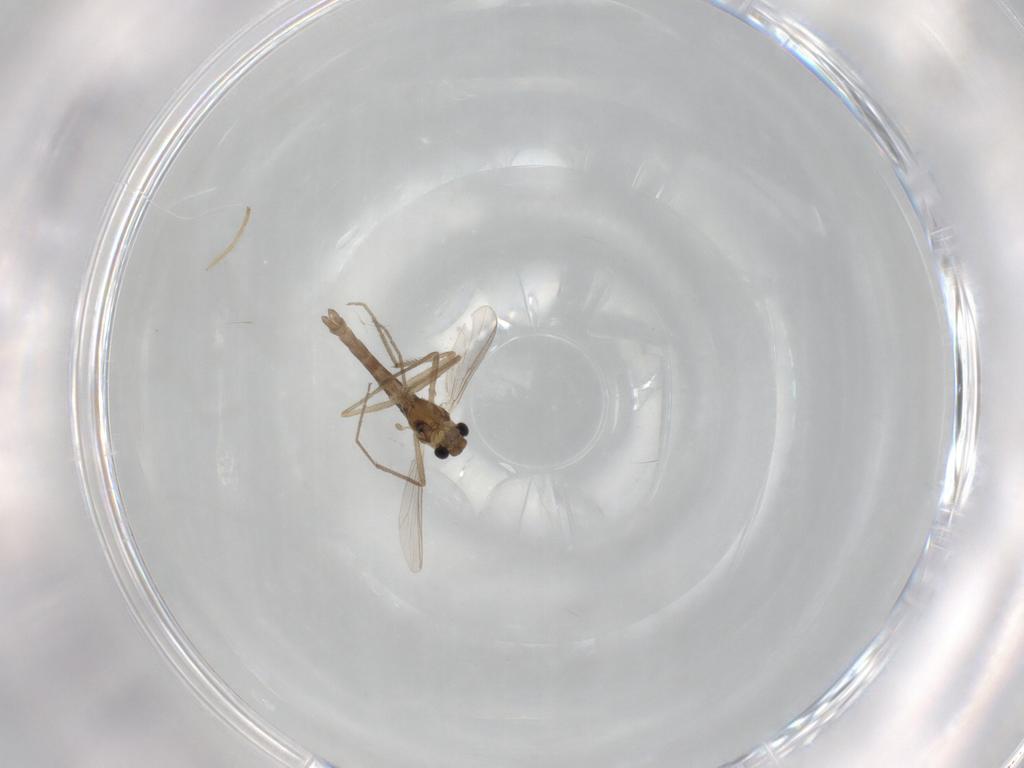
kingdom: Animalia
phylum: Arthropoda
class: Insecta
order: Diptera
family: Chironomidae
